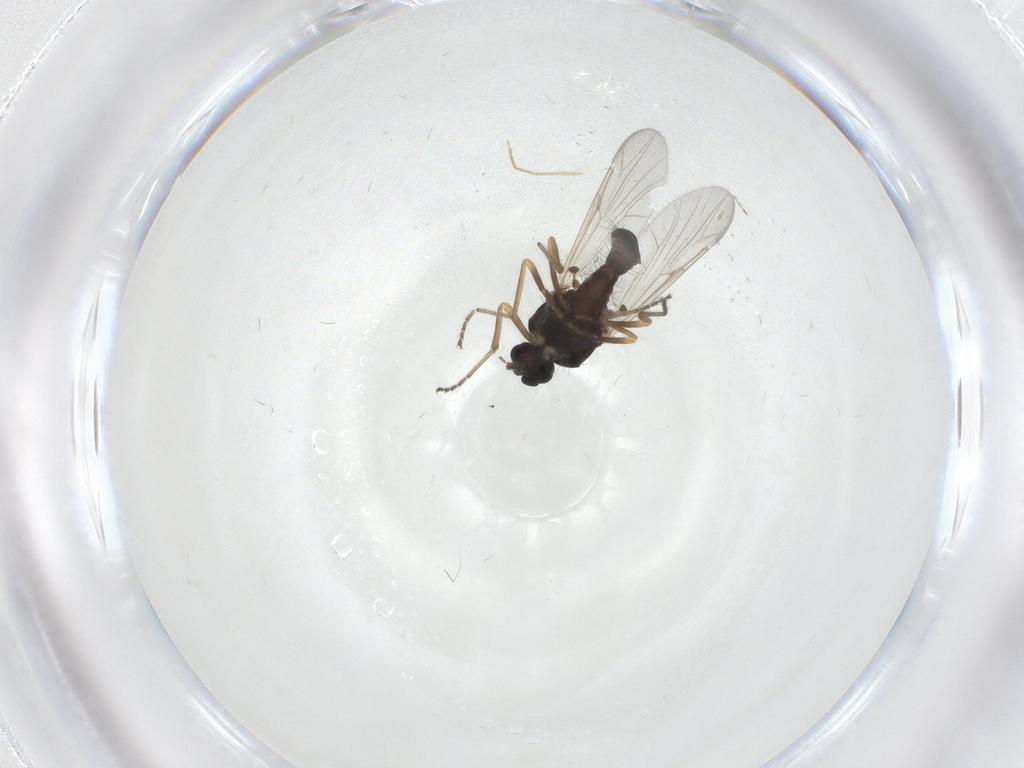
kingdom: Animalia
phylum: Arthropoda
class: Insecta
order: Diptera
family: Ceratopogonidae
